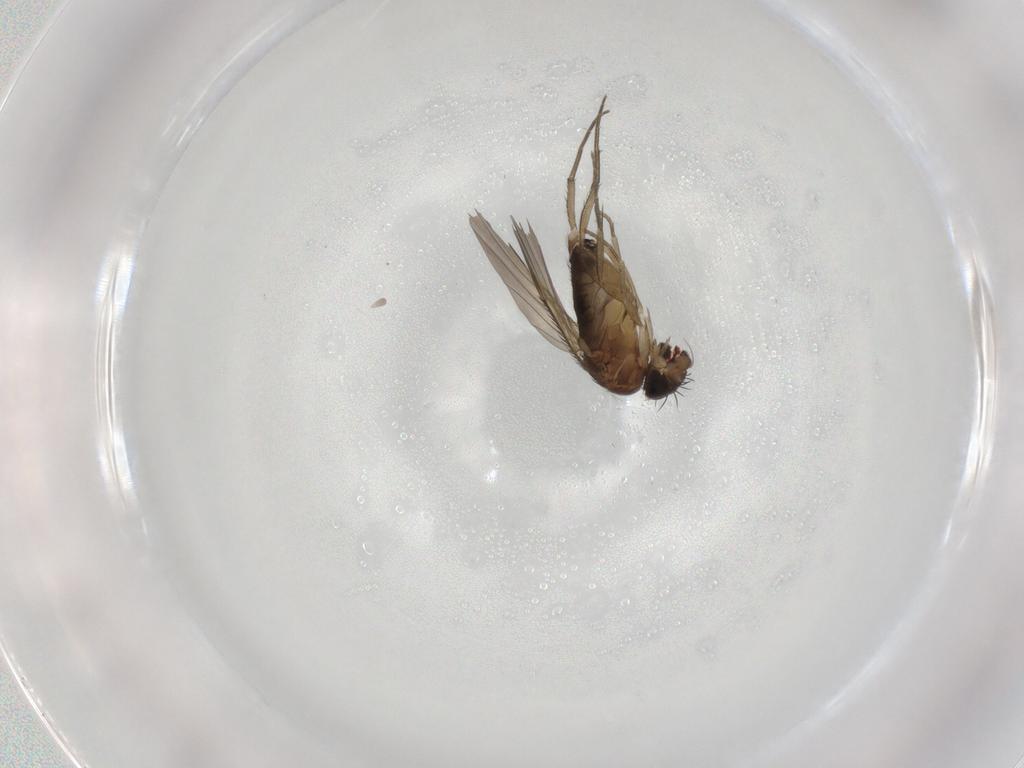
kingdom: Animalia
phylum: Arthropoda
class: Insecta
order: Diptera
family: Phoridae
